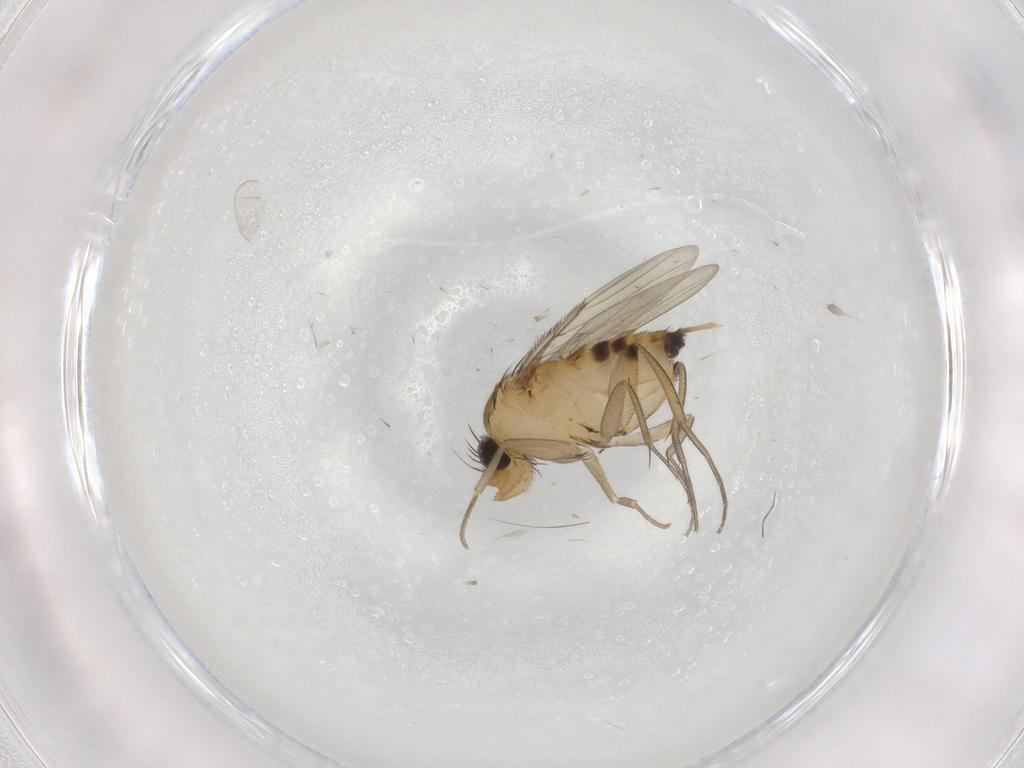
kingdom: Animalia
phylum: Arthropoda
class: Insecta
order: Diptera
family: Phoridae
